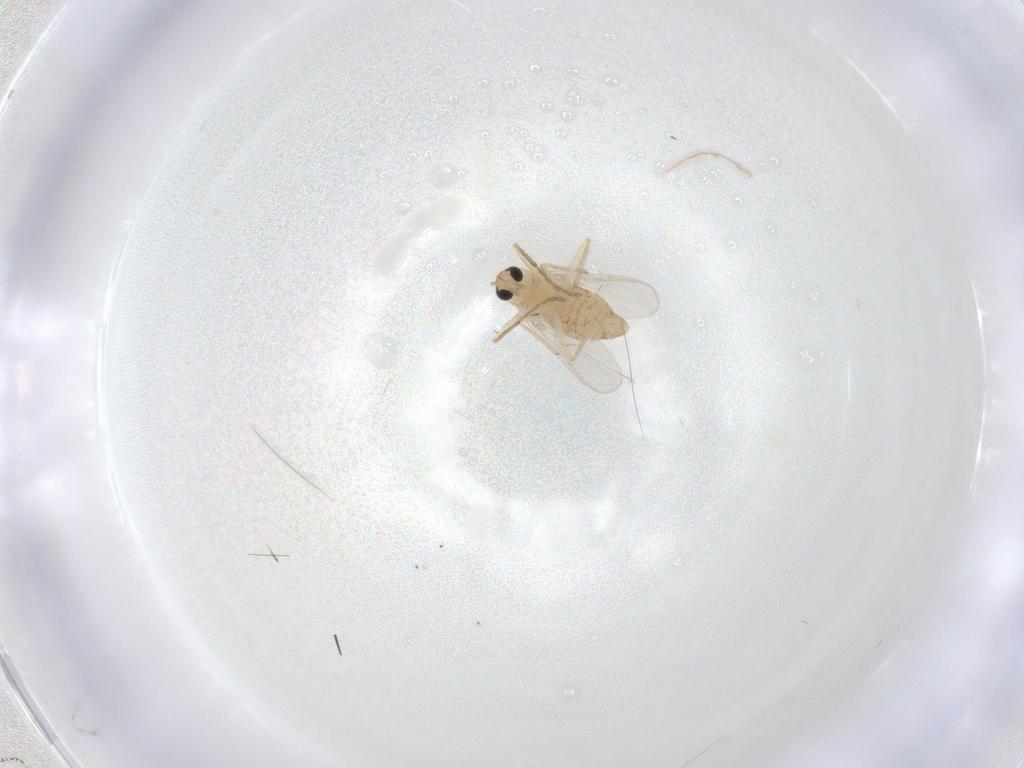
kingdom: Animalia
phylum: Arthropoda
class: Insecta
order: Diptera
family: Chironomidae
